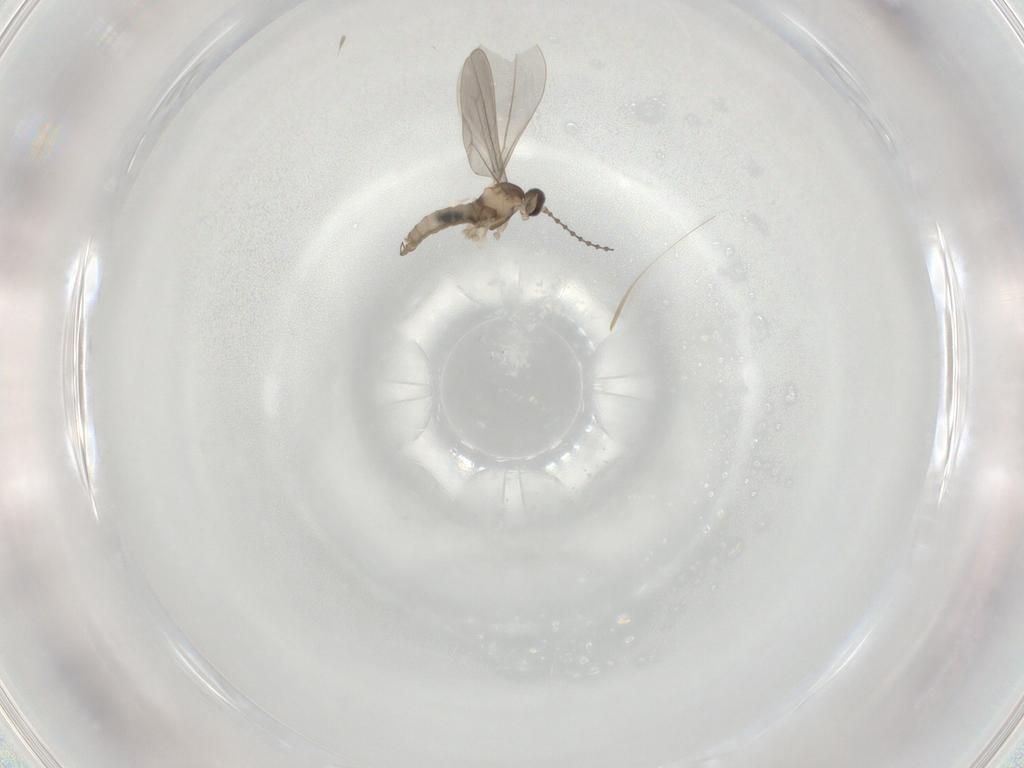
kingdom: Animalia
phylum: Arthropoda
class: Insecta
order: Diptera
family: Cecidomyiidae
